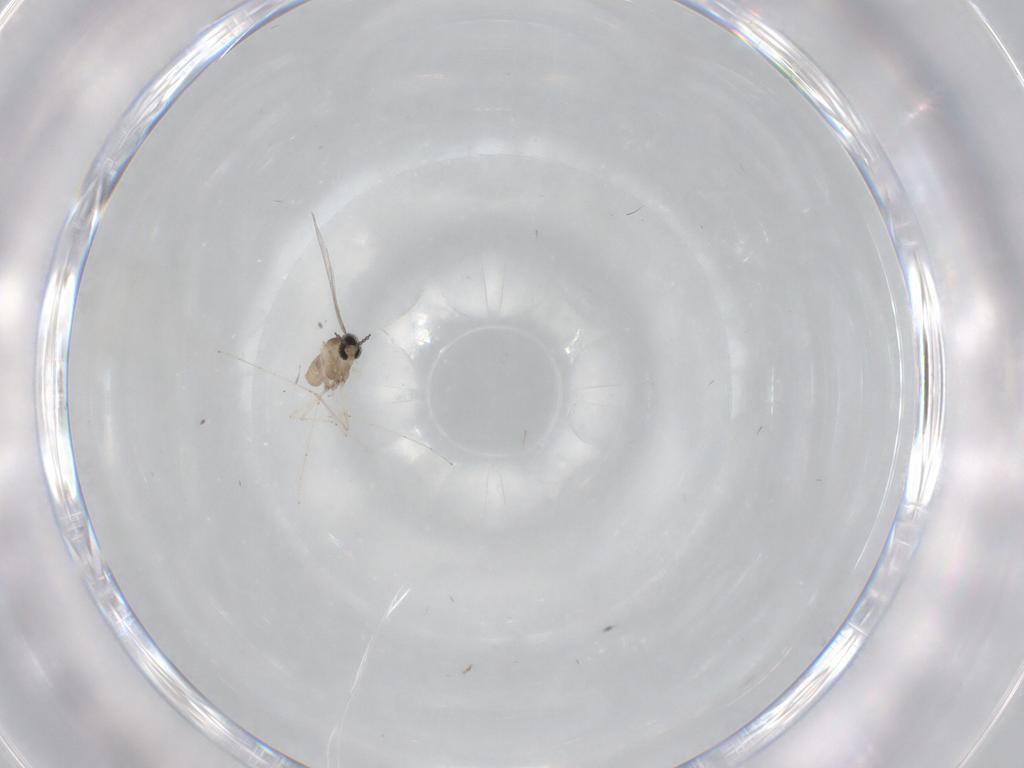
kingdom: Animalia
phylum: Arthropoda
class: Insecta
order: Diptera
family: Cecidomyiidae
